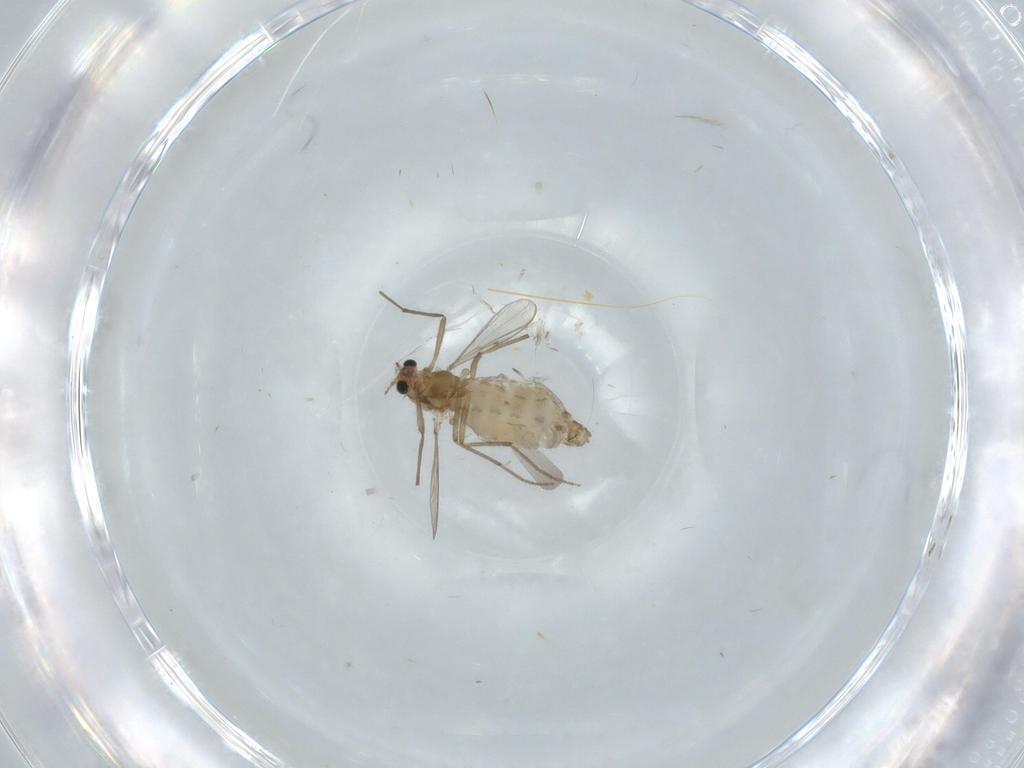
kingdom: Animalia
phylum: Arthropoda
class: Insecta
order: Diptera
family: Chironomidae
